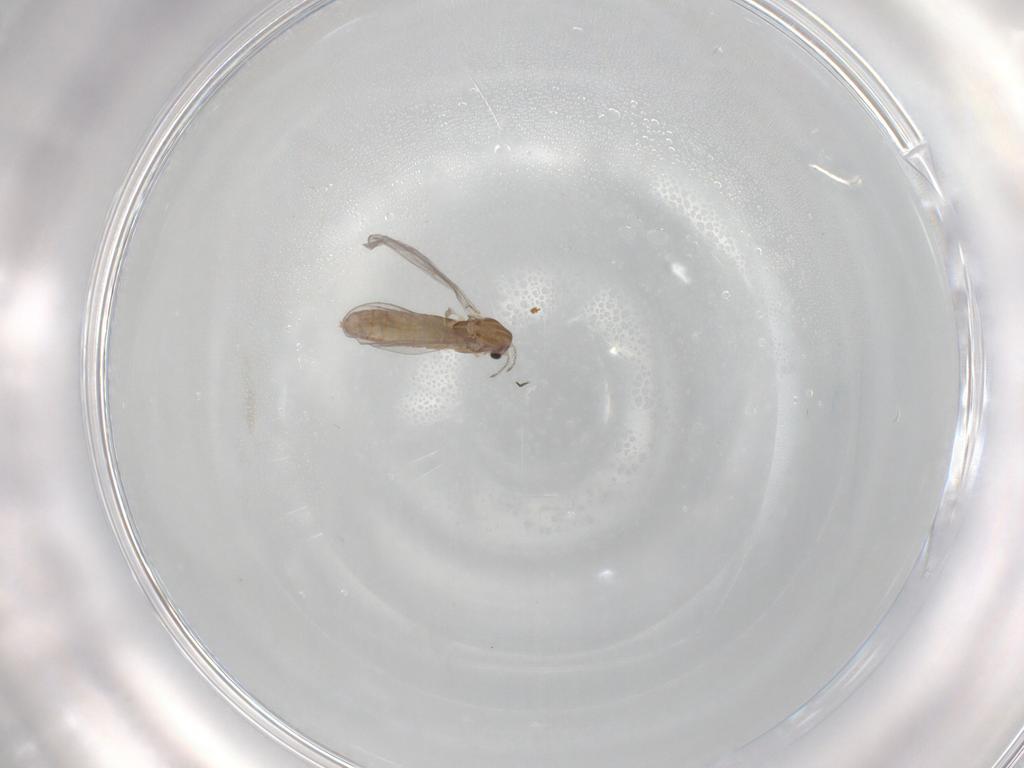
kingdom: Animalia
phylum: Arthropoda
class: Insecta
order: Diptera
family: Chironomidae
